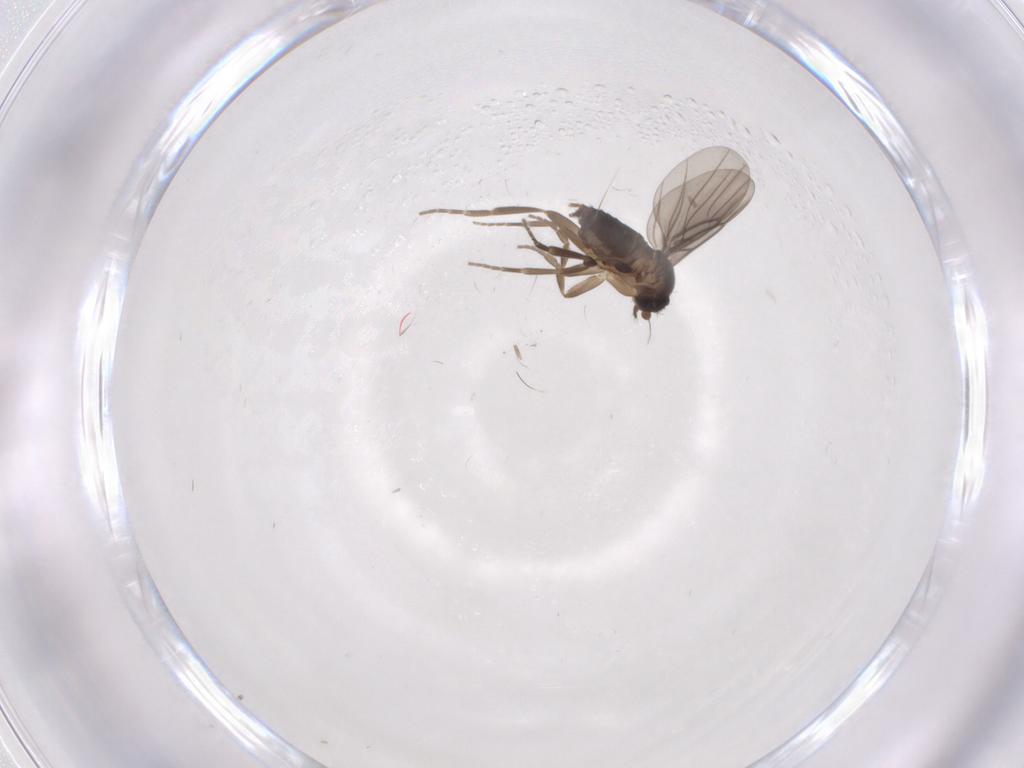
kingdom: Animalia
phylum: Arthropoda
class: Insecta
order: Diptera
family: Phoridae
